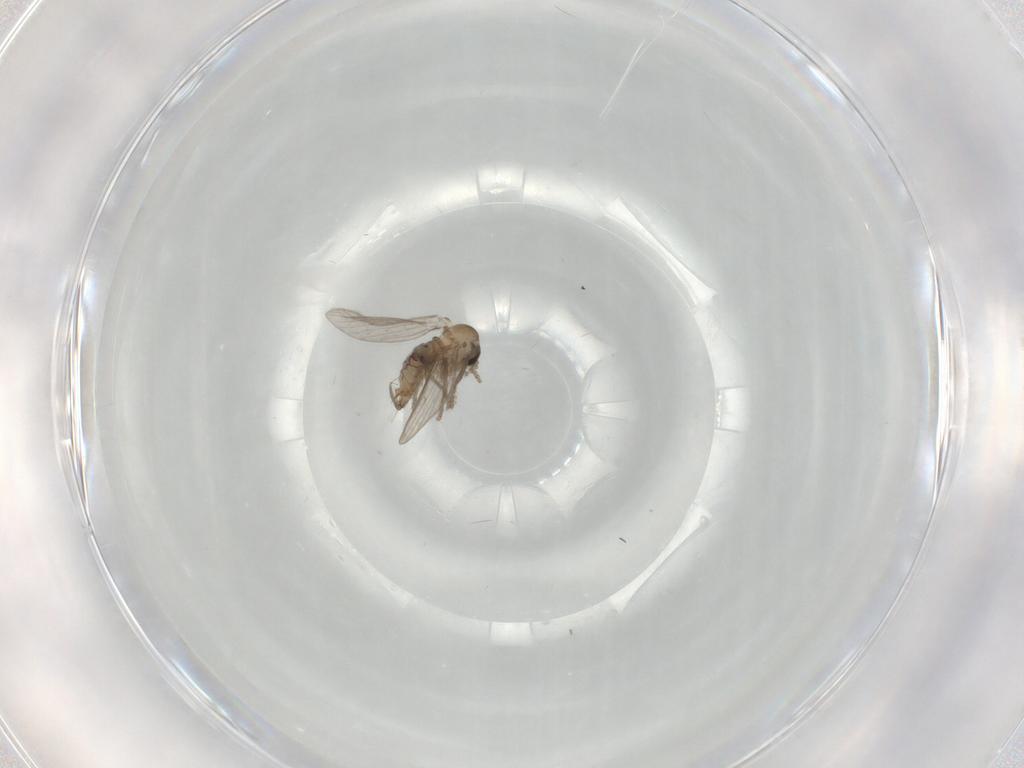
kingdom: Animalia
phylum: Arthropoda
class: Insecta
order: Diptera
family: Psychodidae
